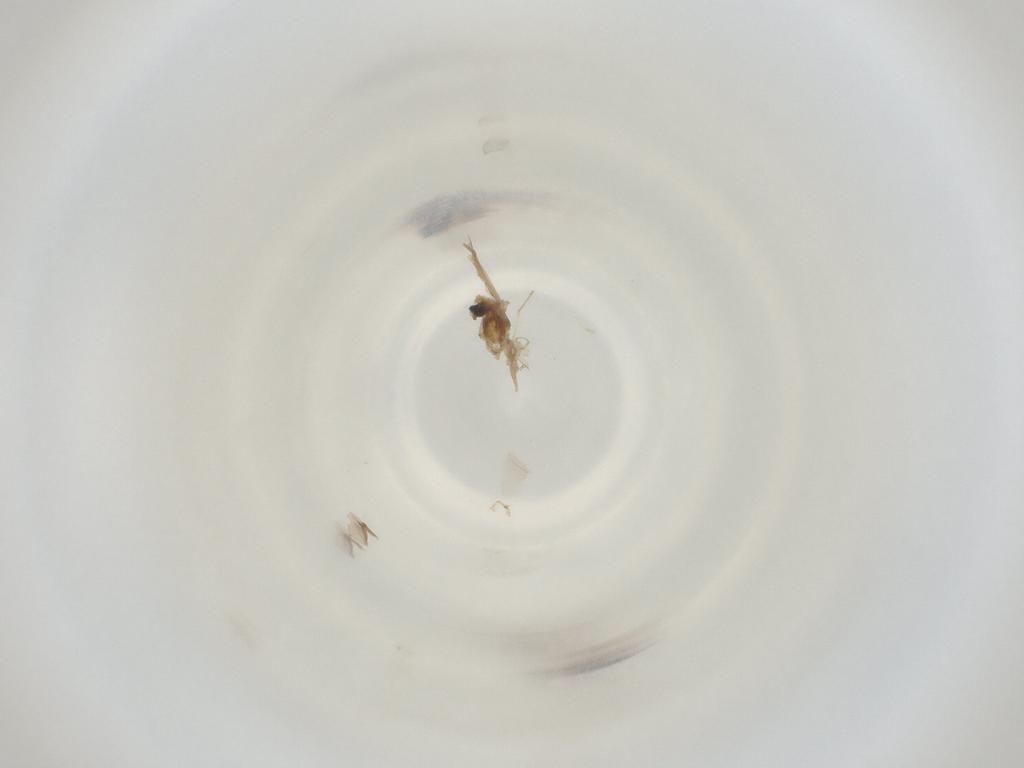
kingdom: Animalia
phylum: Arthropoda
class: Insecta
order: Diptera
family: Cecidomyiidae
